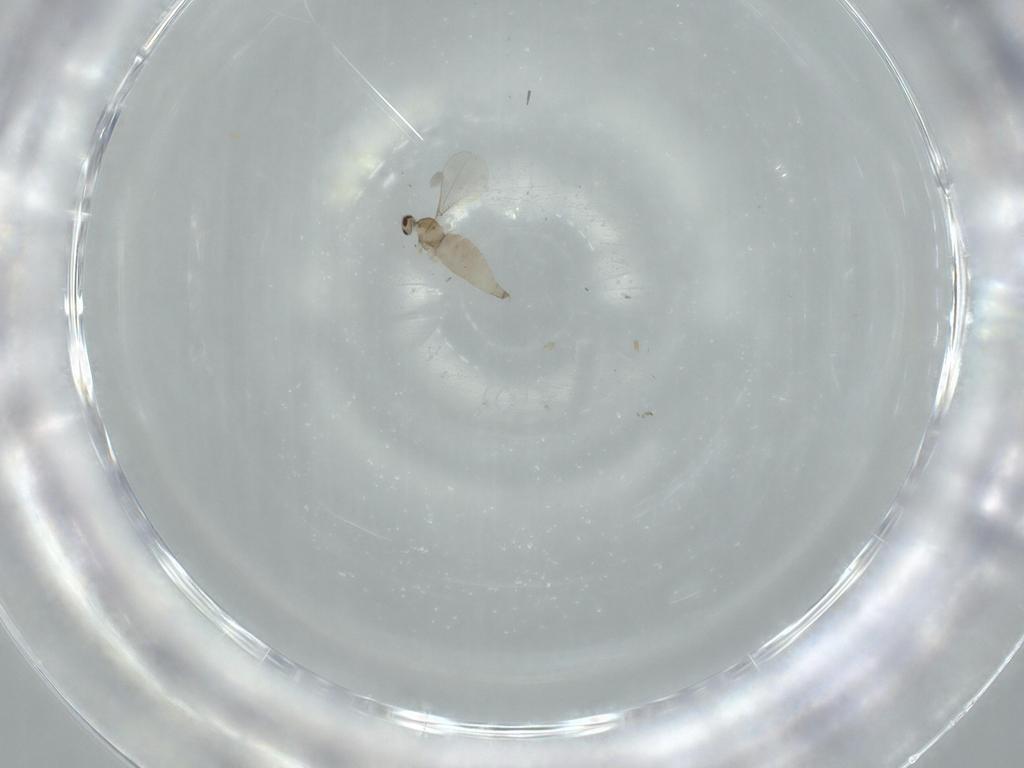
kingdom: Animalia
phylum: Arthropoda
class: Insecta
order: Diptera
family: Cecidomyiidae
